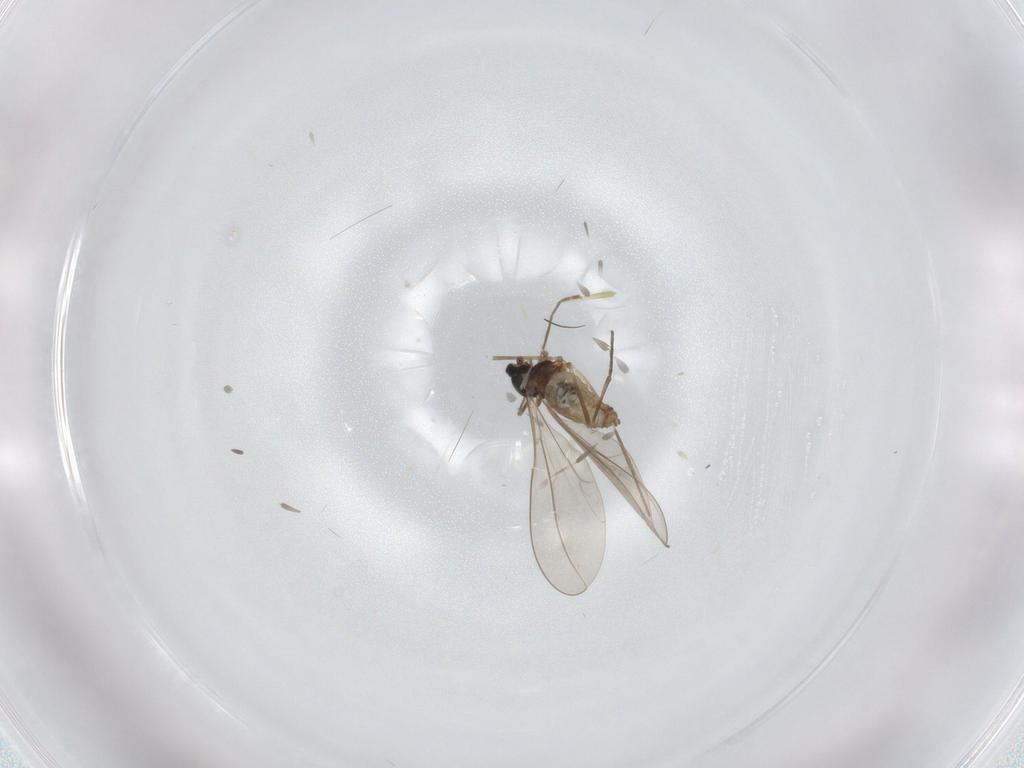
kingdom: Animalia
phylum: Arthropoda
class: Insecta
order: Diptera
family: Cecidomyiidae
